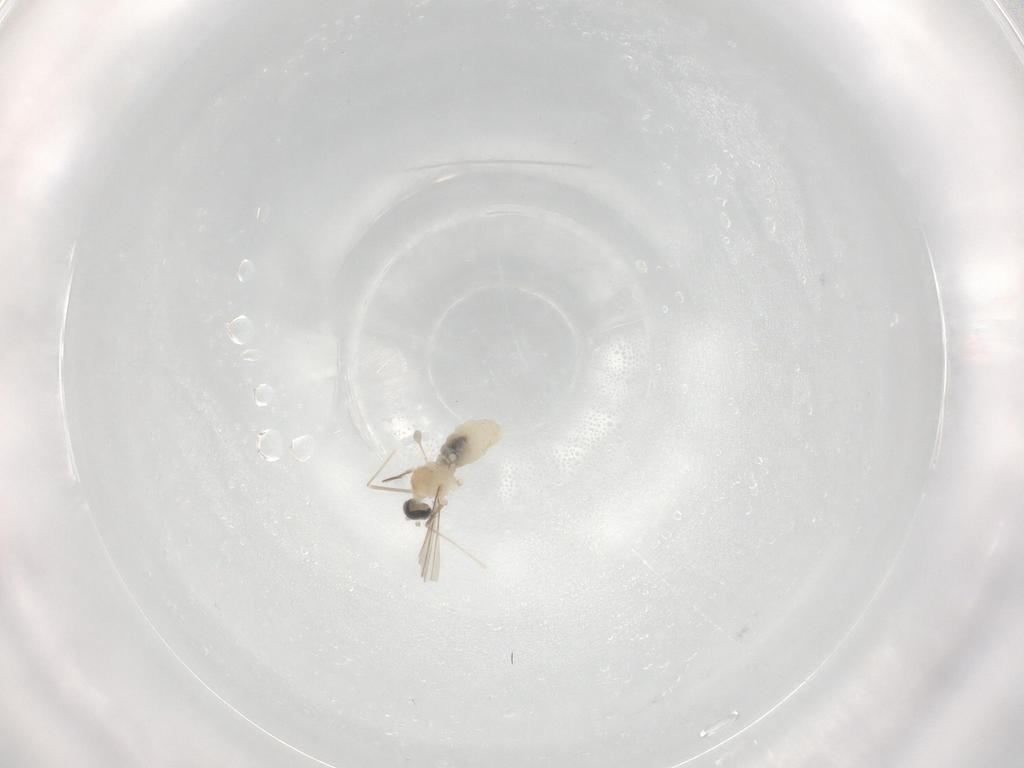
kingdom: Animalia
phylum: Arthropoda
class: Insecta
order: Diptera
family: Cecidomyiidae
